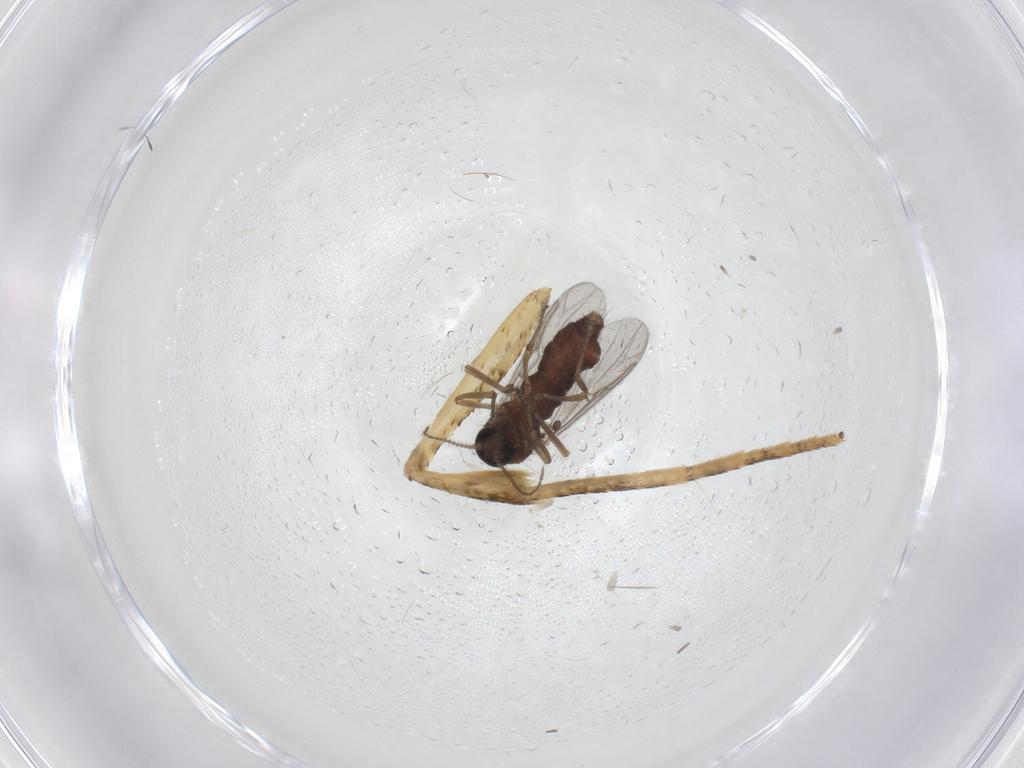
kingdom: Animalia
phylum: Arthropoda
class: Insecta
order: Diptera
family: Ceratopogonidae
